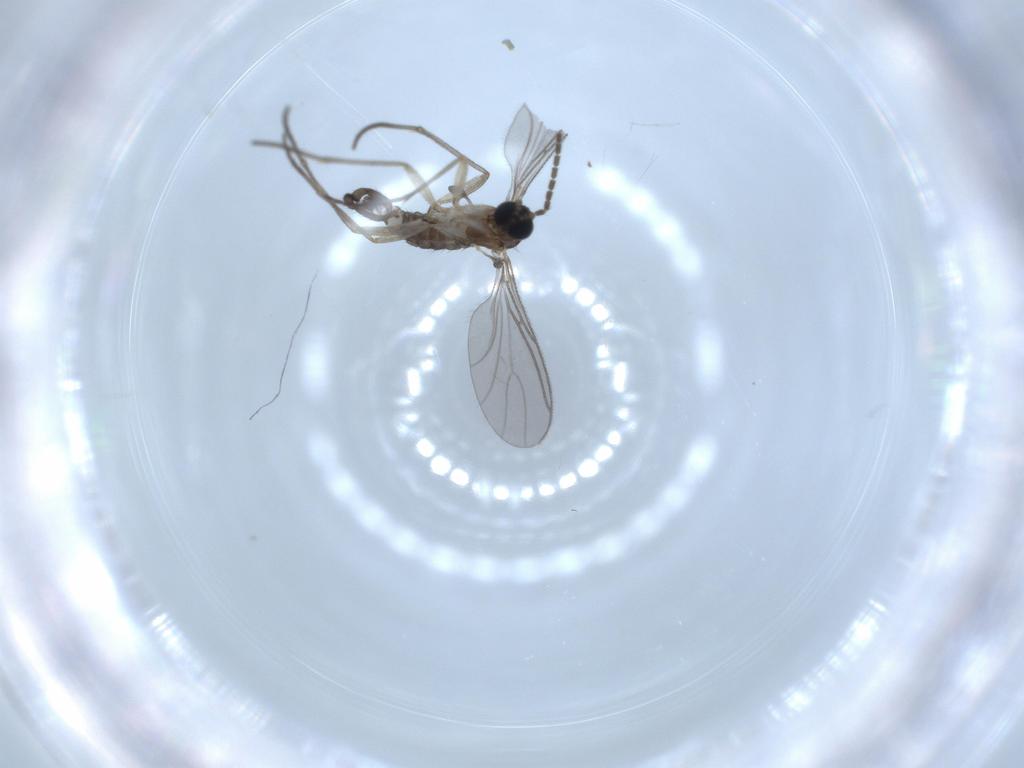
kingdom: Animalia
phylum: Arthropoda
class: Insecta
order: Diptera
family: Sciaridae
